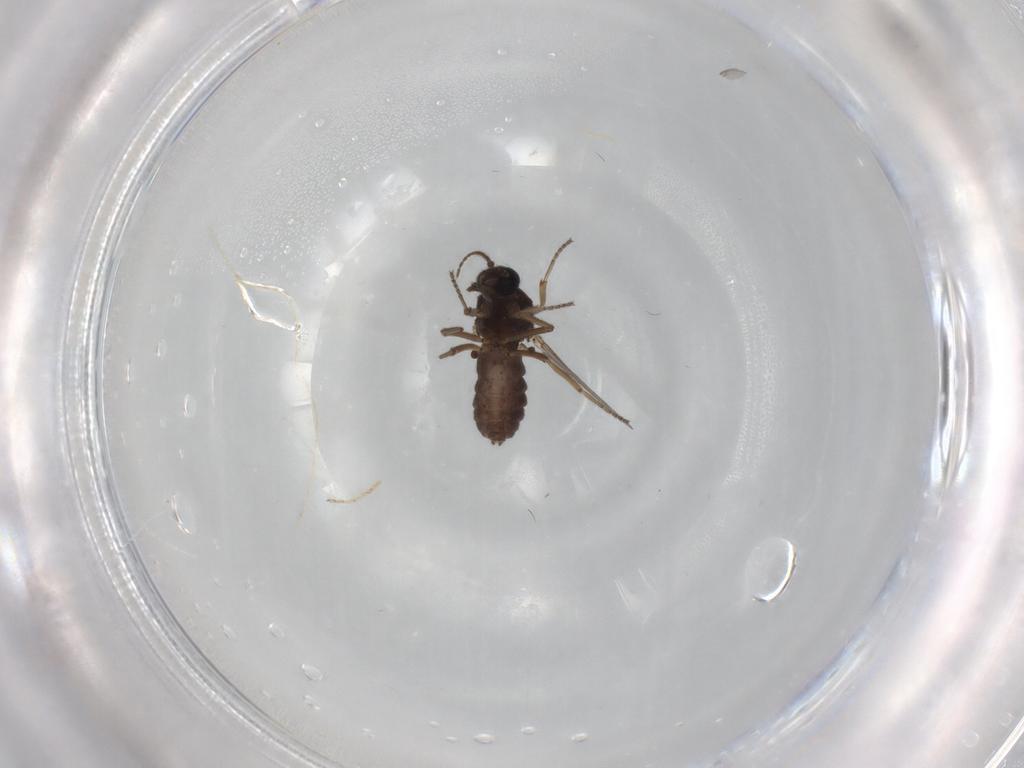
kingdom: Animalia
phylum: Arthropoda
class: Insecta
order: Diptera
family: Ceratopogonidae
